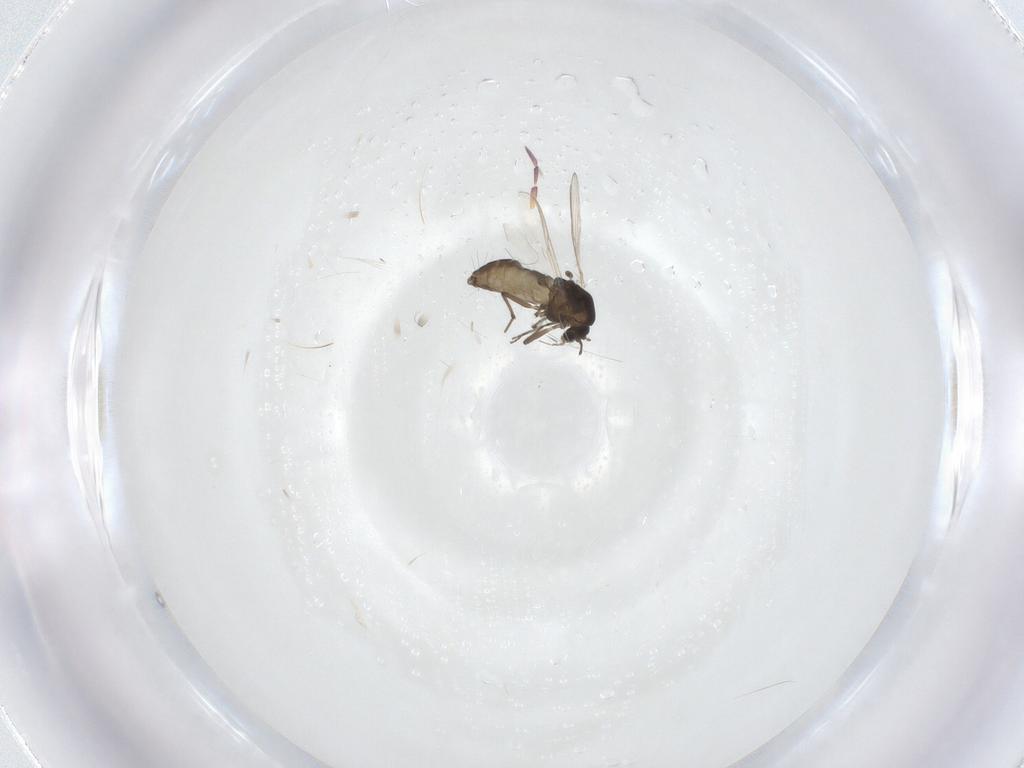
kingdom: Animalia
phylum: Arthropoda
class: Insecta
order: Diptera
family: Chironomidae
